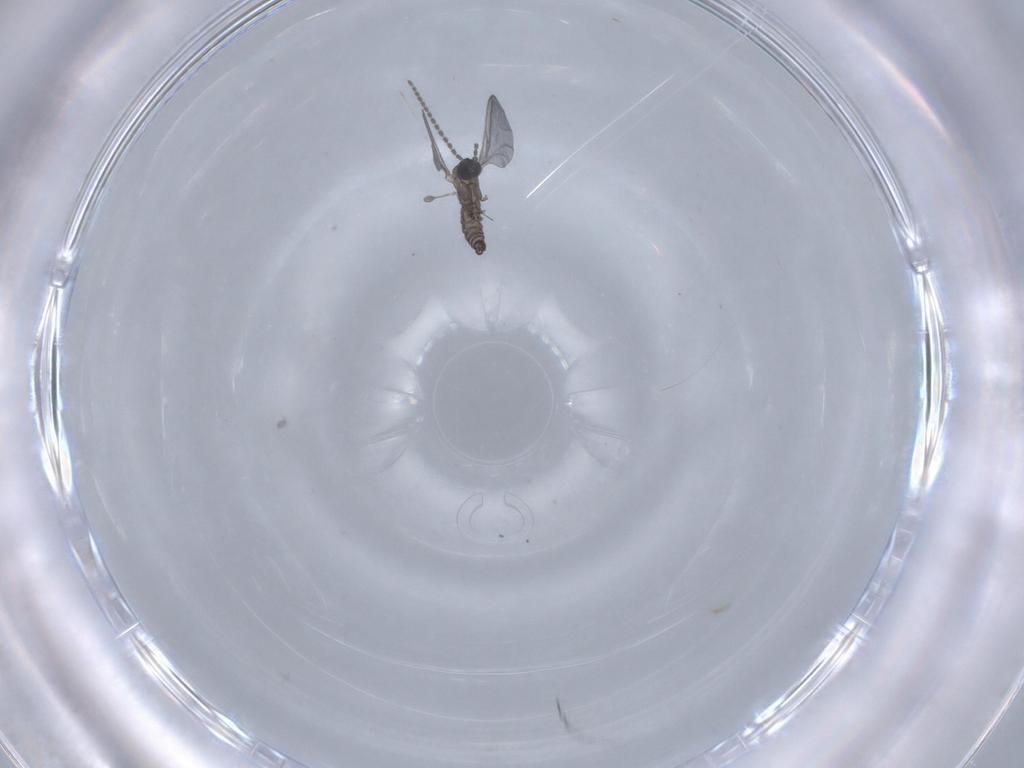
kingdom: Animalia
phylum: Arthropoda
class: Insecta
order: Diptera
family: Sciaridae
